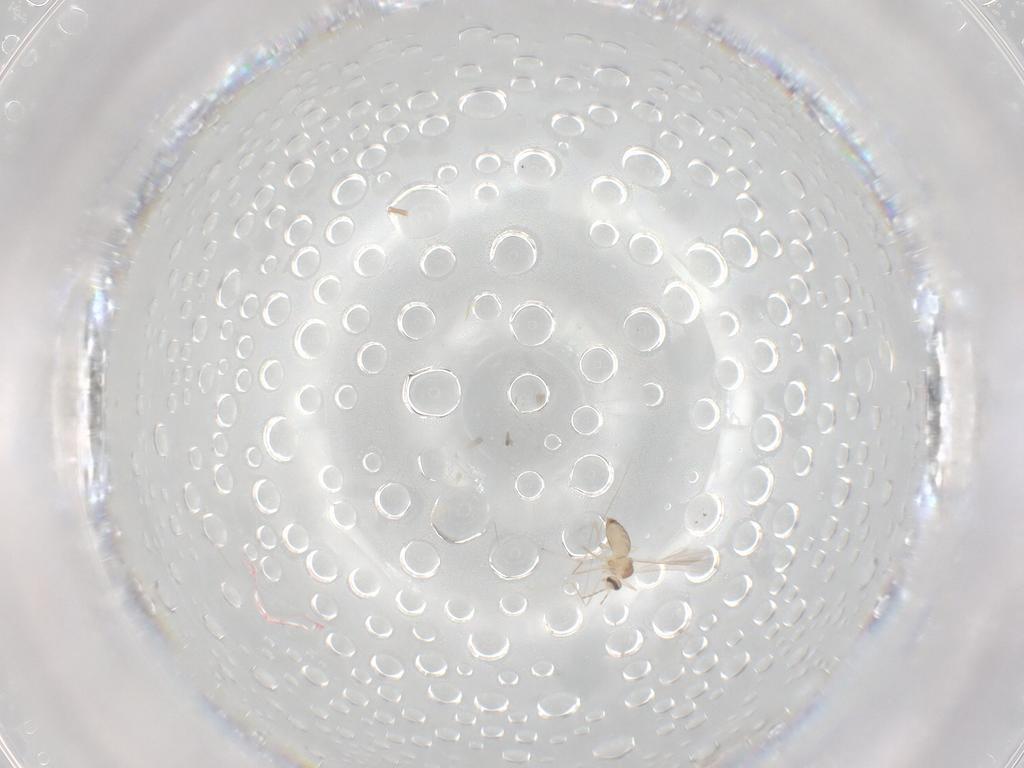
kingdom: Animalia
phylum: Arthropoda
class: Insecta
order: Diptera
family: Cecidomyiidae
